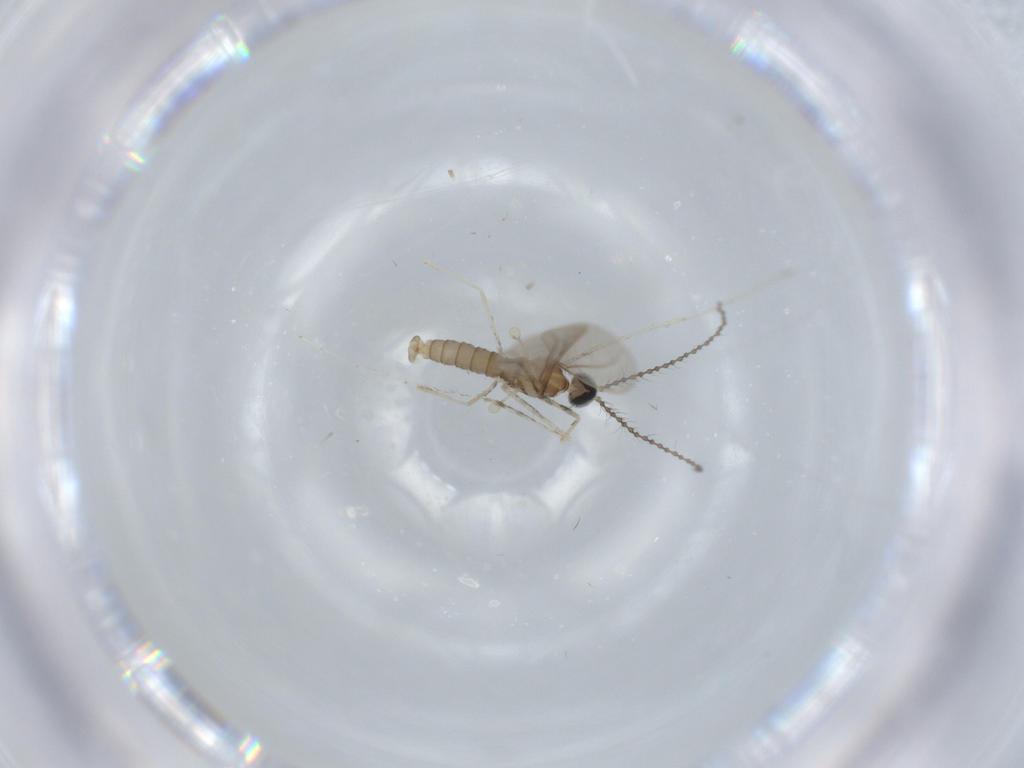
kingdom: Animalia
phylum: Arthropoda
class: Insecta
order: Diptera
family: Cecidomyiidae
